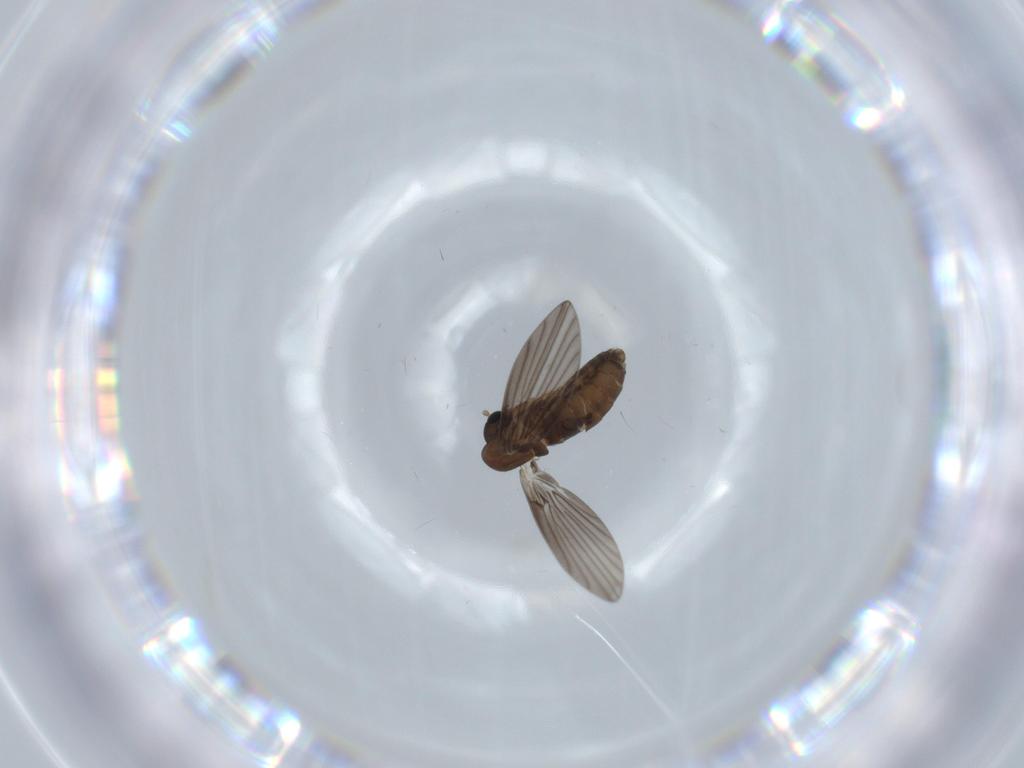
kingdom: Animalia
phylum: Arthropoda
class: Insecta
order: Diptera
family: Psychodidae
